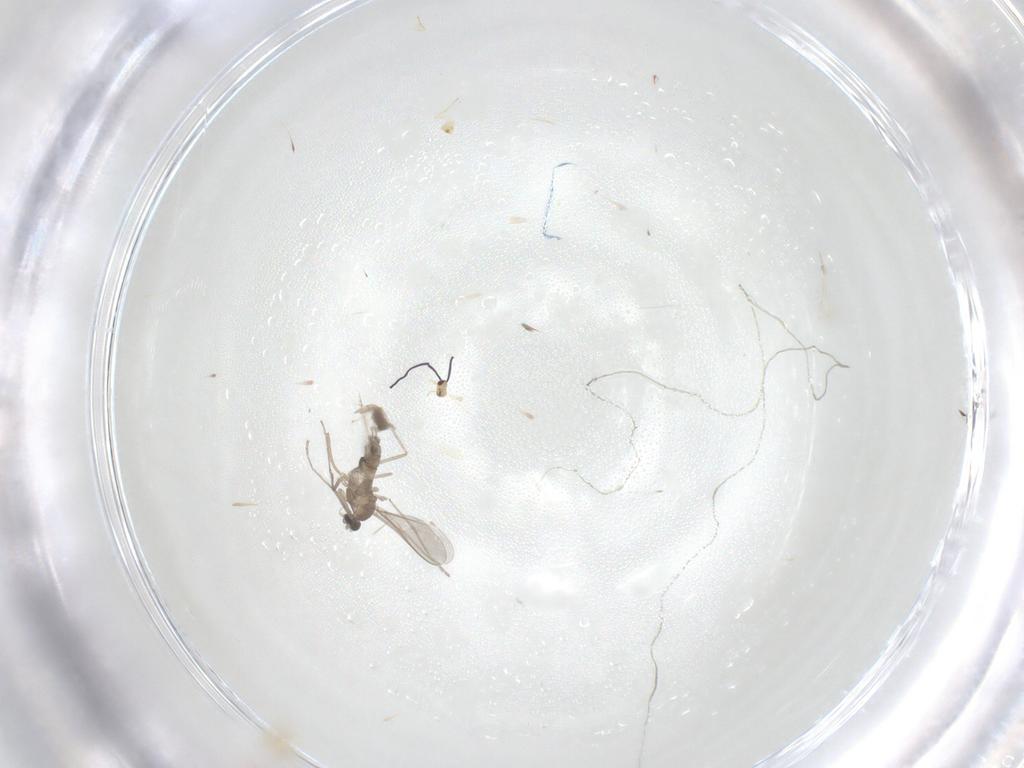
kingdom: Animalia
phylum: Arthropoda
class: Insecta
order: Diptera
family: Cecidomyiidae
